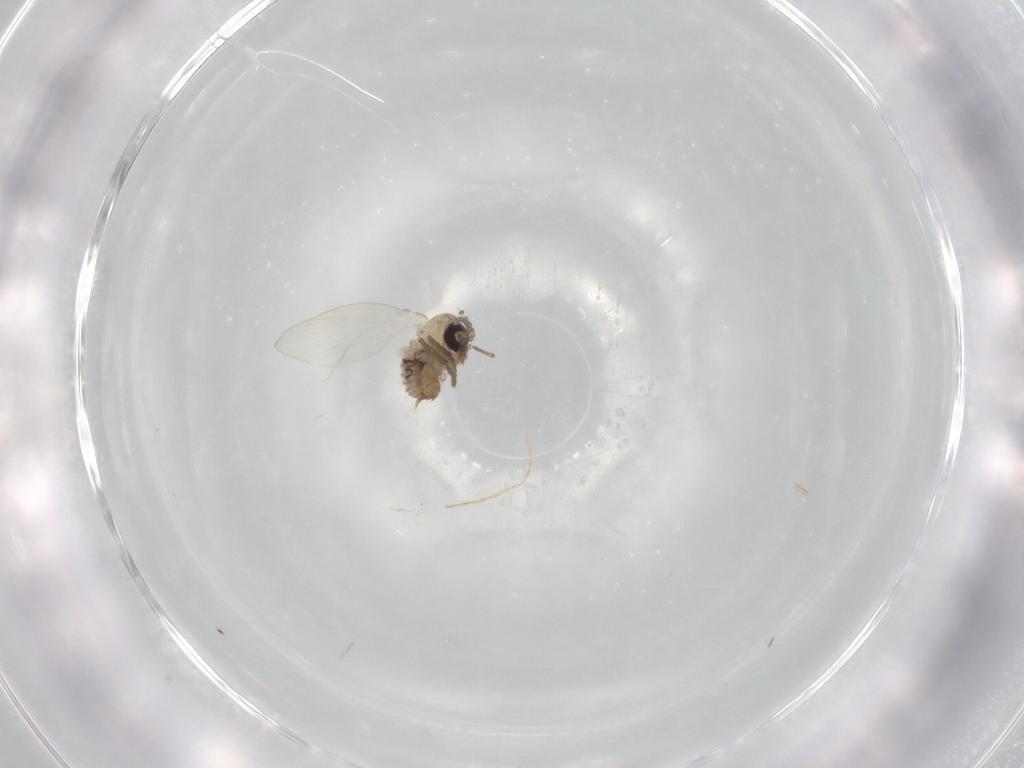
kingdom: Animalia
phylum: Arthropoda
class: Insecta
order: Diptera
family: Psychodidae
